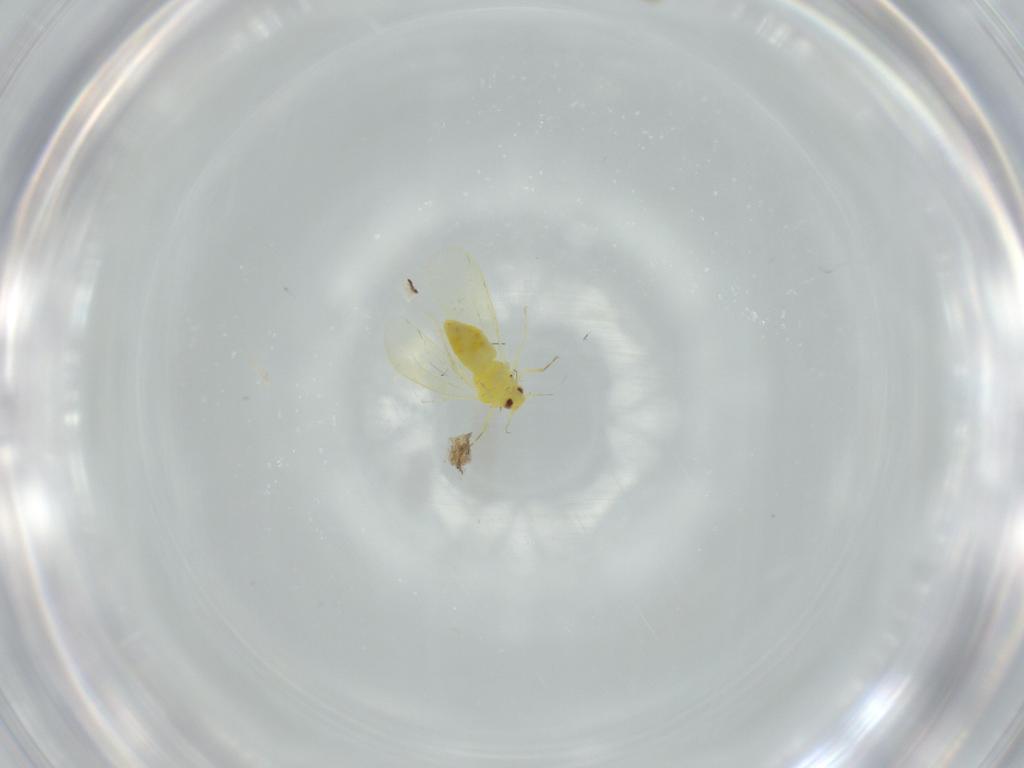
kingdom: Animalia
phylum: Arthropoda
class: Insecta
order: Hemiptera
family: Aleyrodidae
